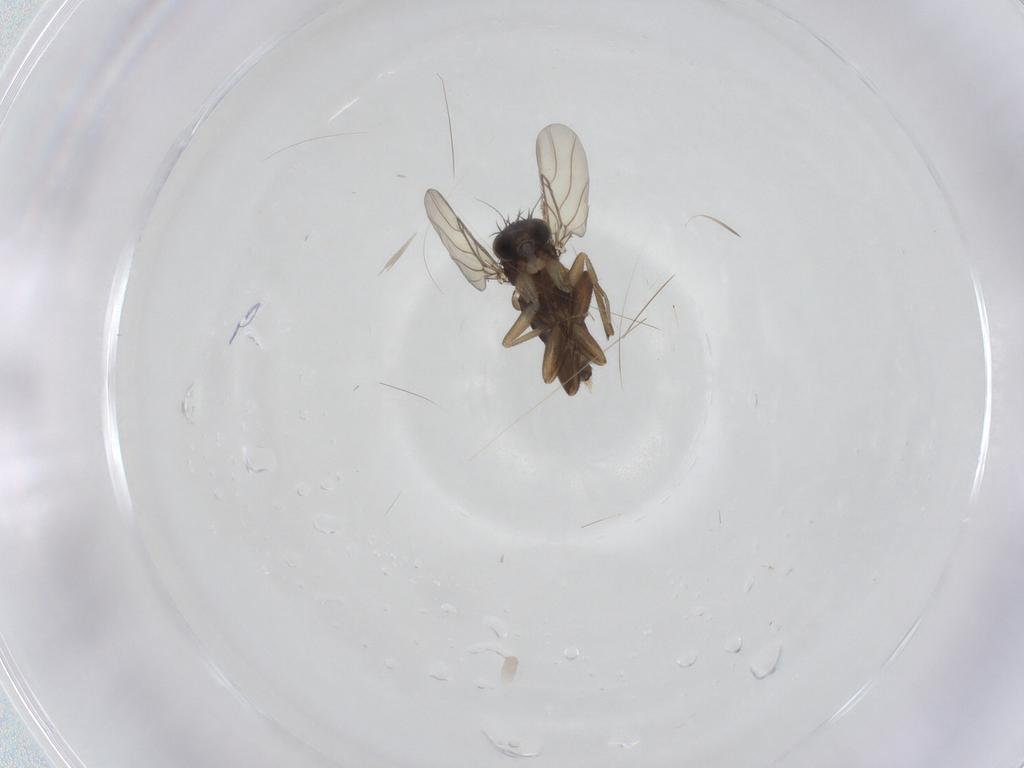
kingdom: Animalia
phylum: Arthropoda
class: Insecta
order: Diptera
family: Phoridae
